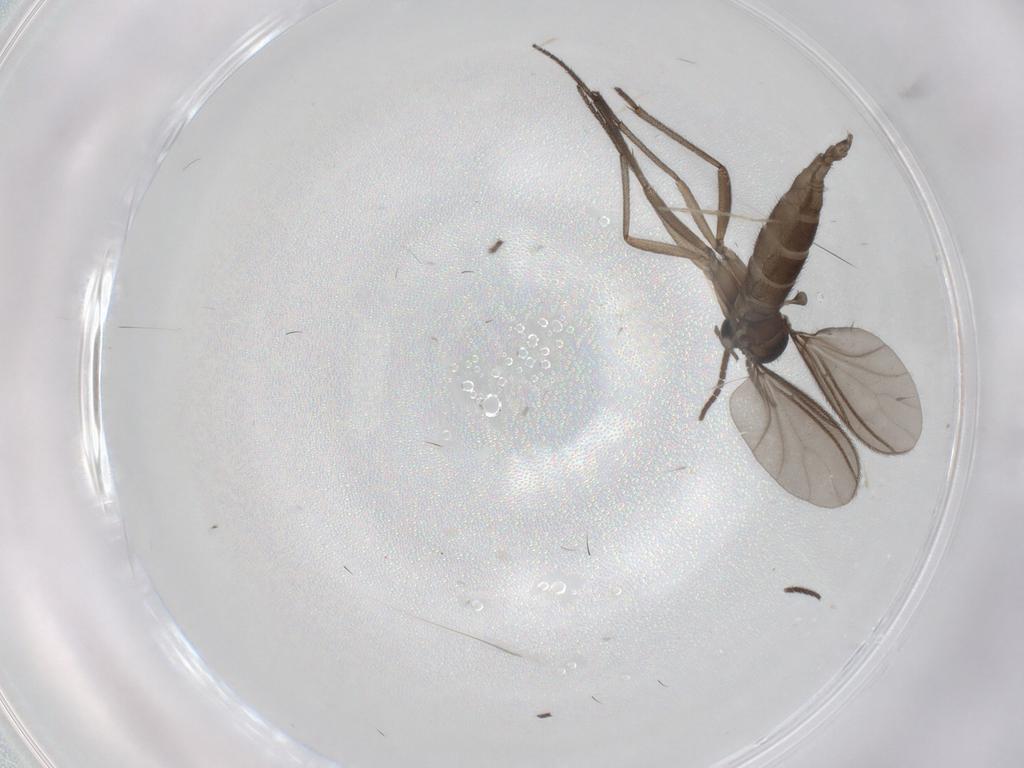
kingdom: Animalia
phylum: Arthropoda
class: Insecta
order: Diptera
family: Sciaridae
